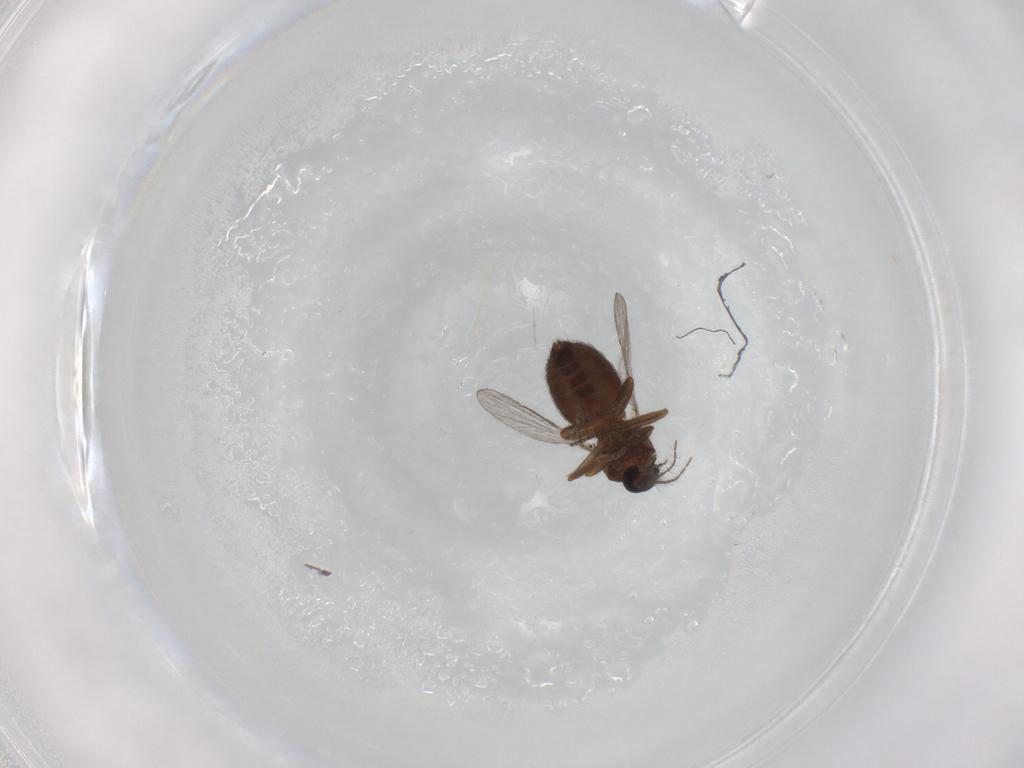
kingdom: Animalia
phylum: Arthropoda
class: Insecta
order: Diptera
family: Ceratopogonidae
